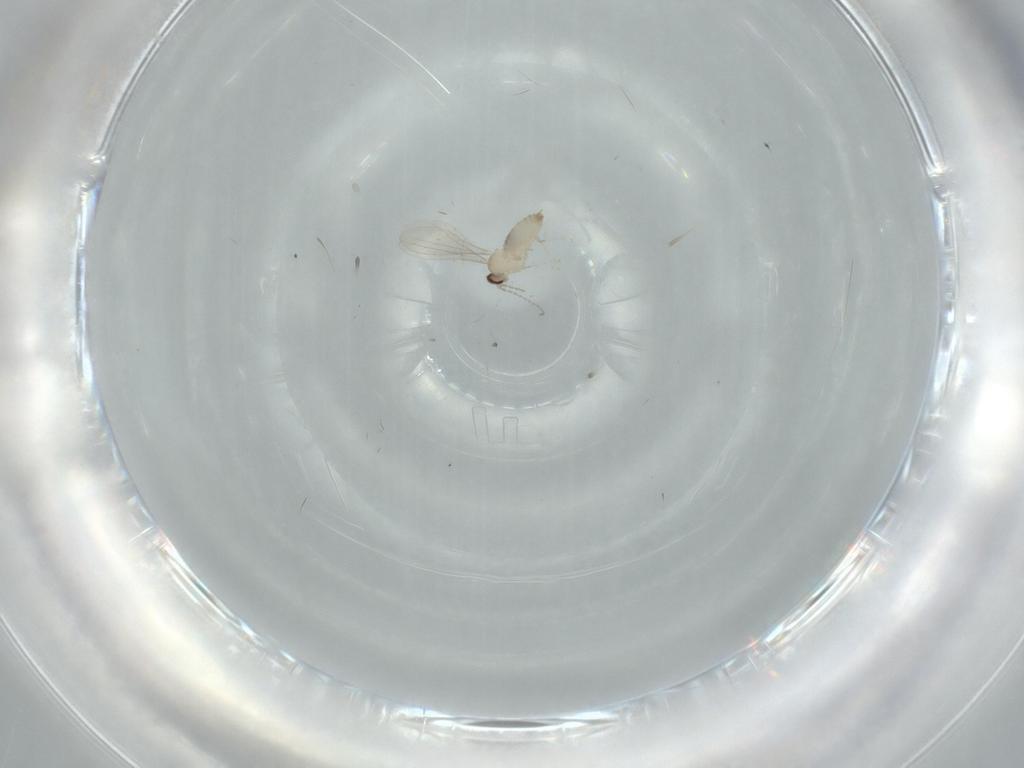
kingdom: Animalia
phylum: Arthropoda
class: Insecta
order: Diptera
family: Cecidomyiidae
